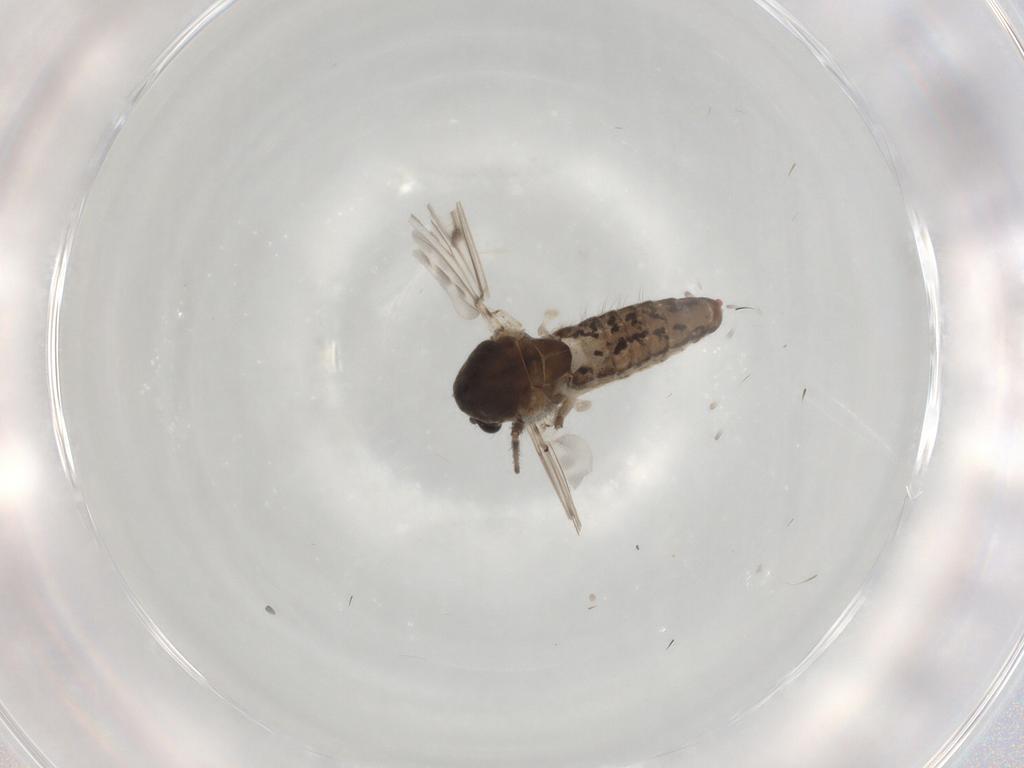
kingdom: Animalia
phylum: Arthropoda
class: Insecta
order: Diptera
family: Chironomidae
